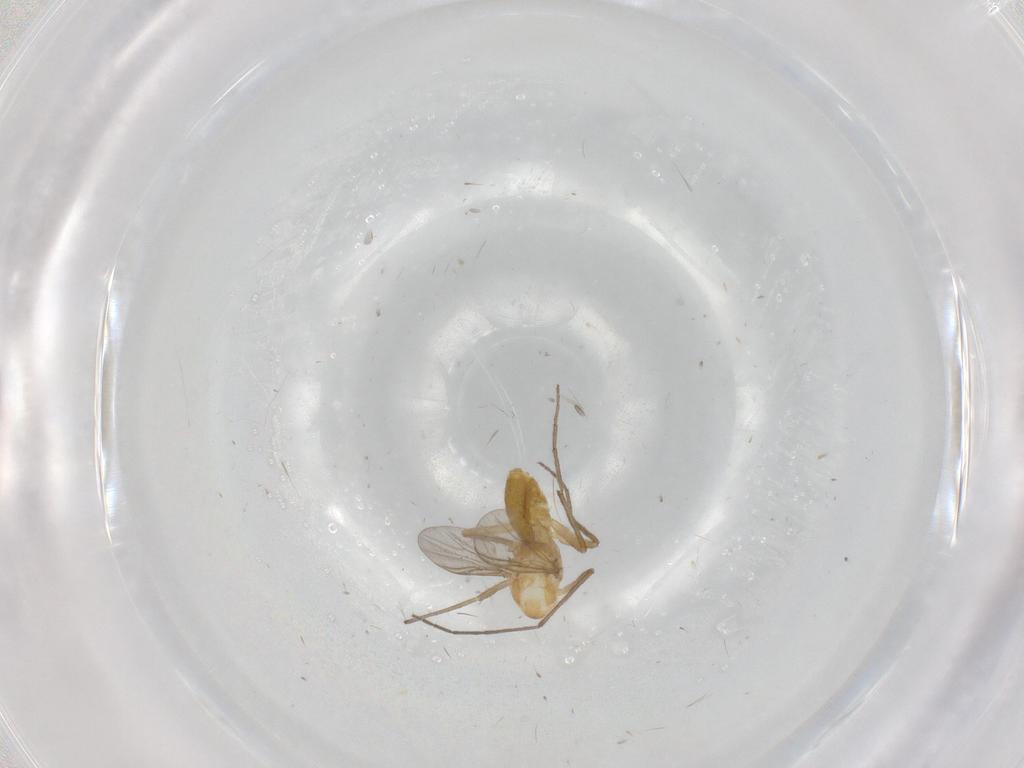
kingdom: Animalia
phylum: Arthropoda
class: Insecta
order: Diptera
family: Chironomidae
